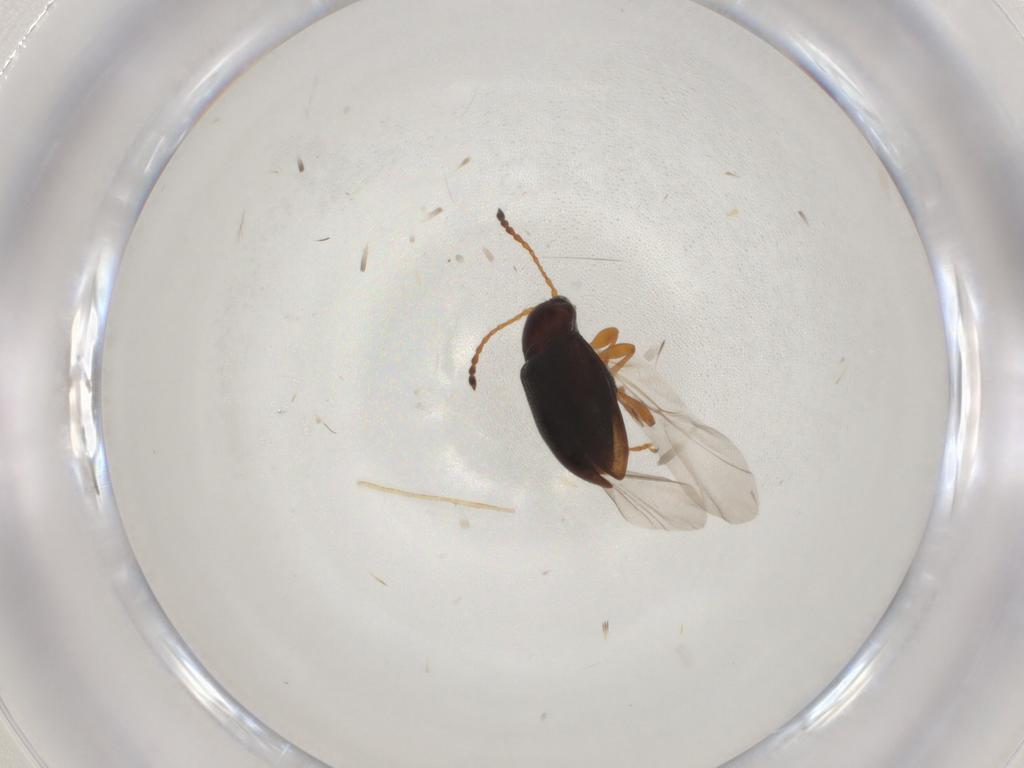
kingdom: Animalia
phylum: Arthropoda
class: Insecta
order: Coleoptera
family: Chrysomelidae
